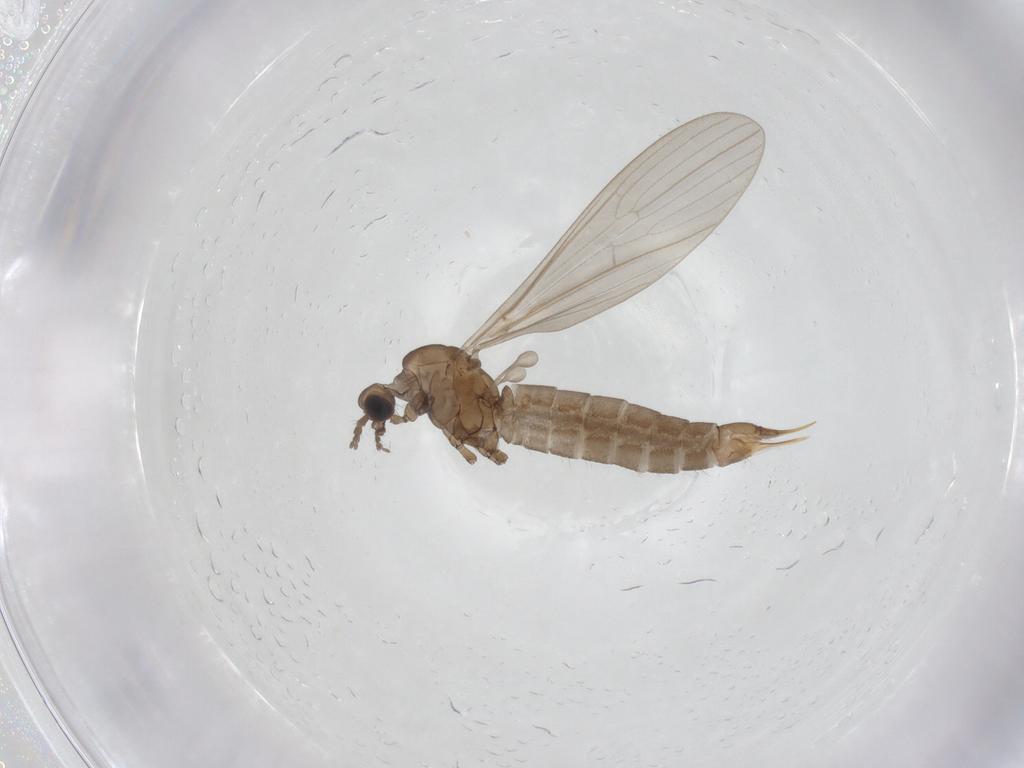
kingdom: Animalia
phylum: Arthropoda
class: Insecta
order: Diptera
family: Limoniidae
